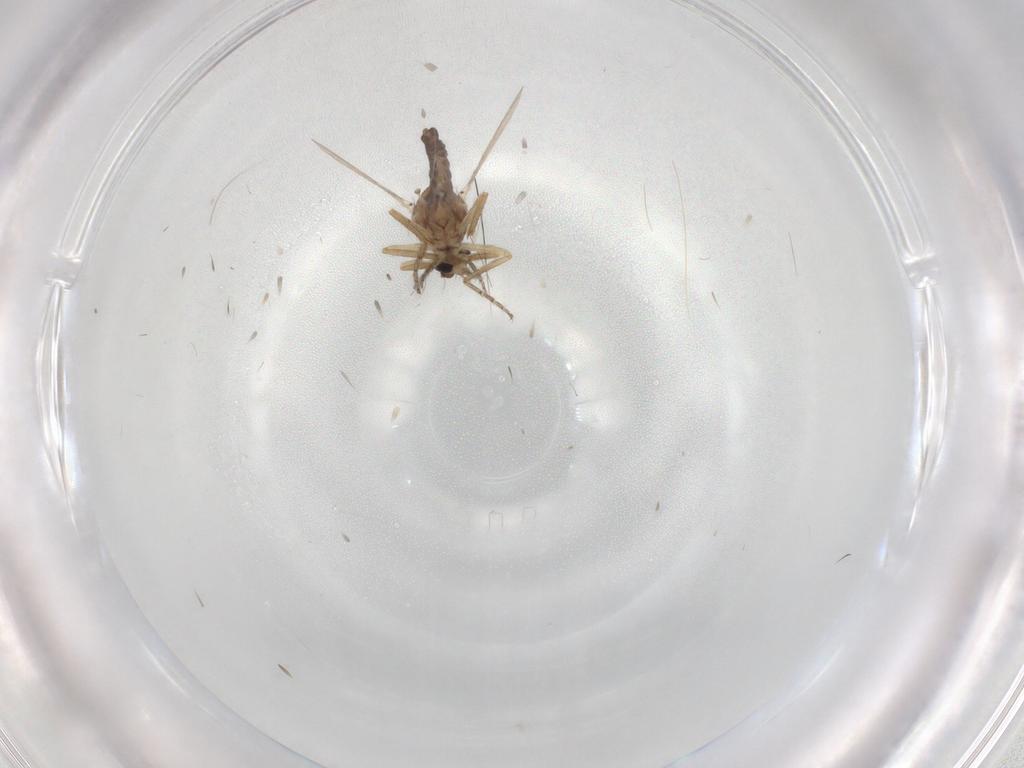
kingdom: Animalia
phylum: Arthropoda
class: Insecta
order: Diptera
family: Ceratopogonidae
